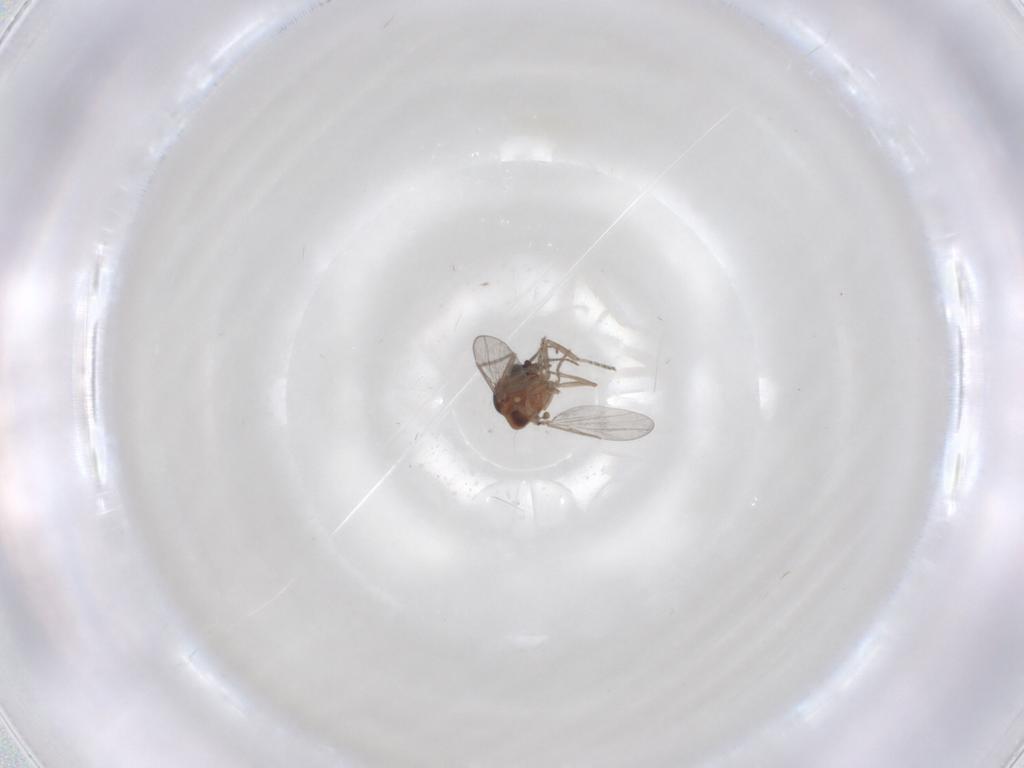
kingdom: Animalia
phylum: Arthropoda
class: Insecta
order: Diptera
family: Ceratopogonidae
